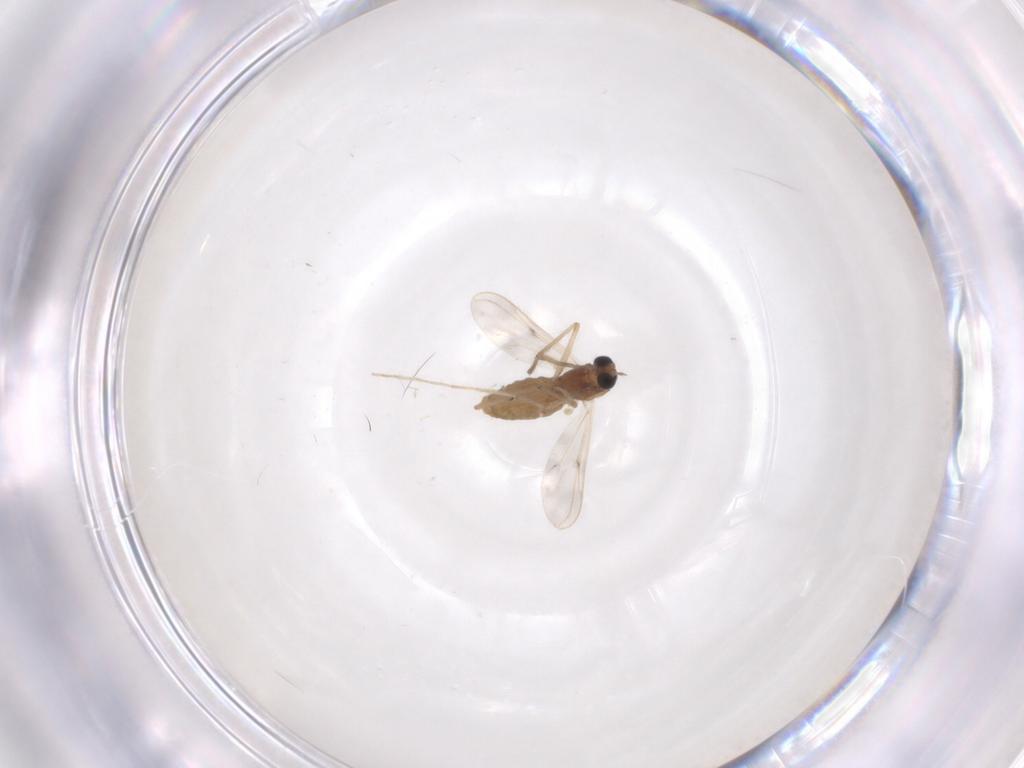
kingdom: Animalia
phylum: Arthropoda
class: Insecta
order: Diptera
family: Chironomidae
